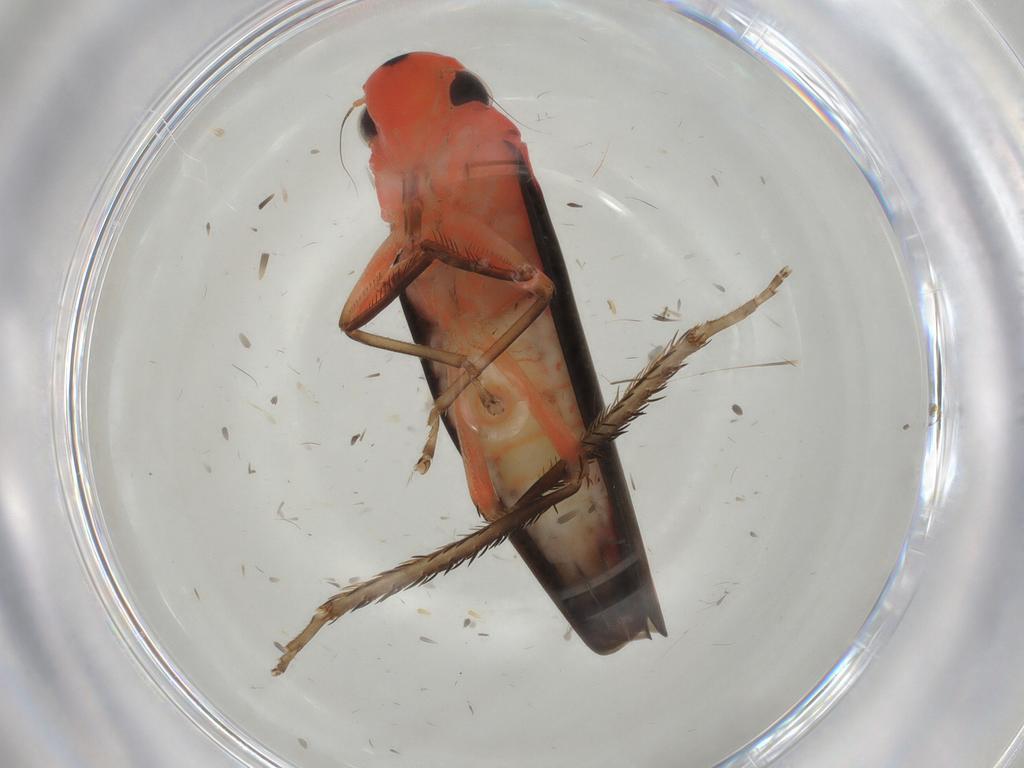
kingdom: Animalia
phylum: Arthropoda
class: Insecta
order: Hemiptera
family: Cicadellidae
